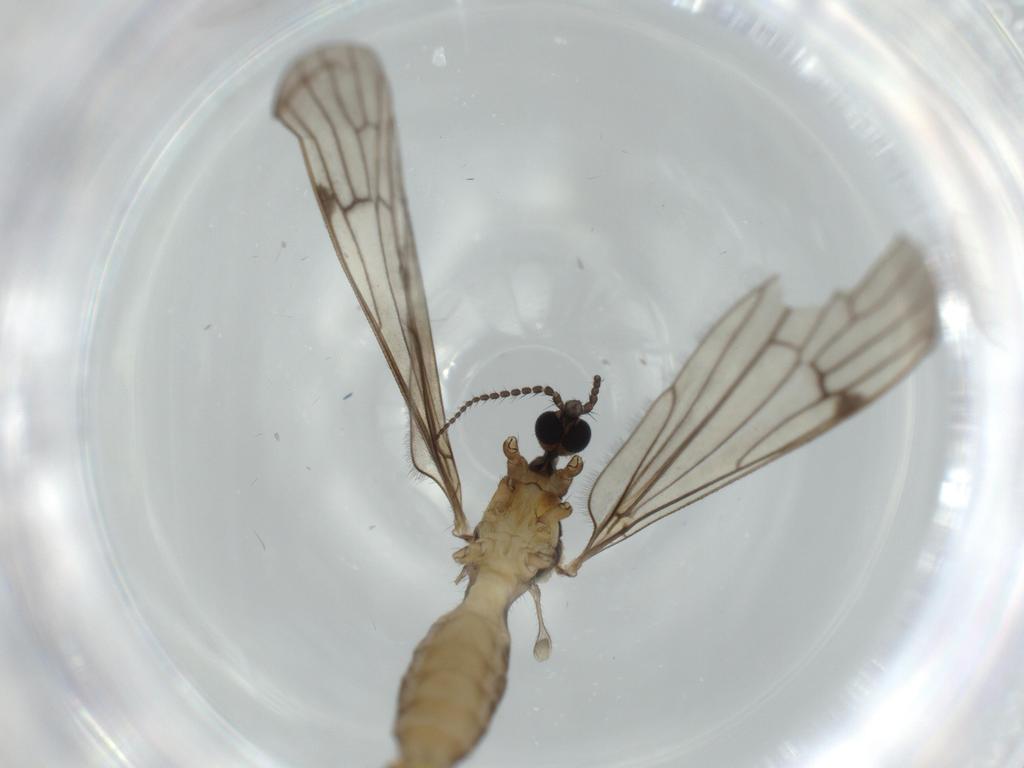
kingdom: Animalia
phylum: Arthropoda
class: Insecta
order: Diptera
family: Limoniidae
